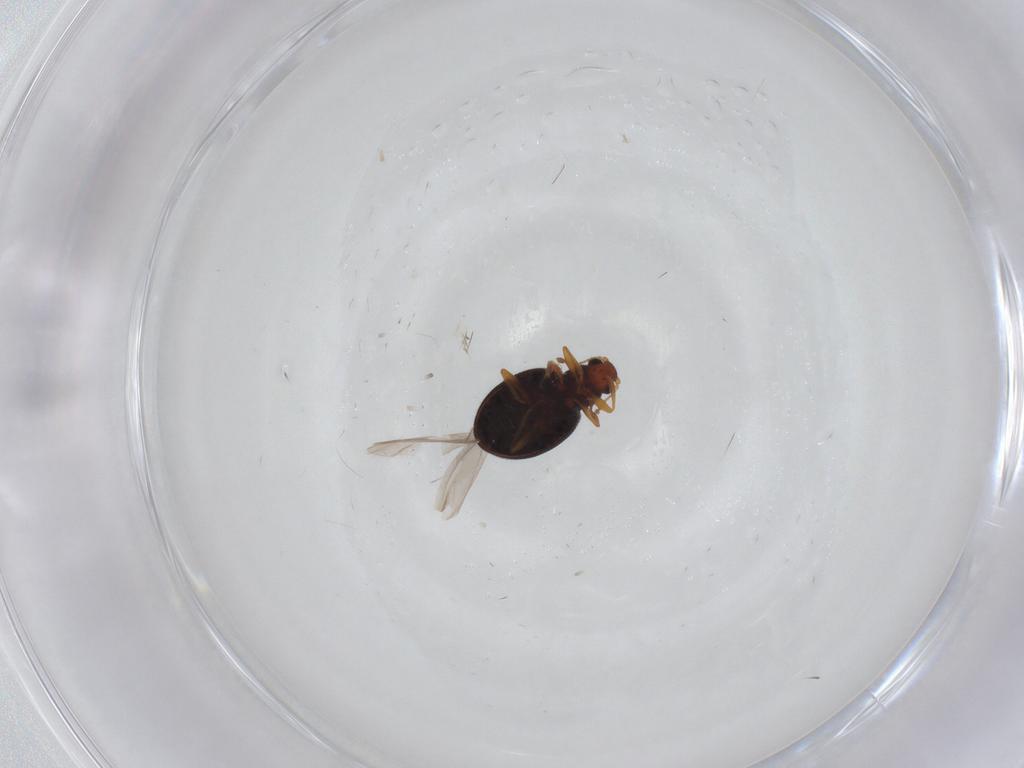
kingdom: Animalia
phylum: Arthropoda
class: Insecta
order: Coleoptera
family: Latridiidae
